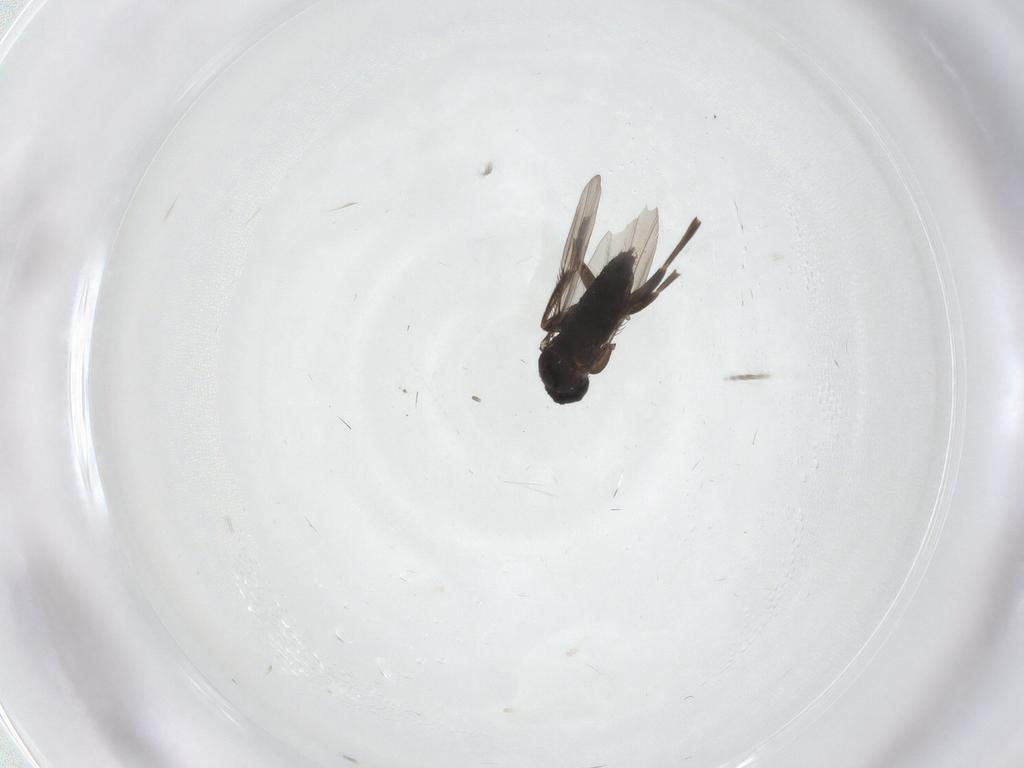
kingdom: Animalia
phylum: Arthropoda
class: Insecta
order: Diptera
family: Phoridae
